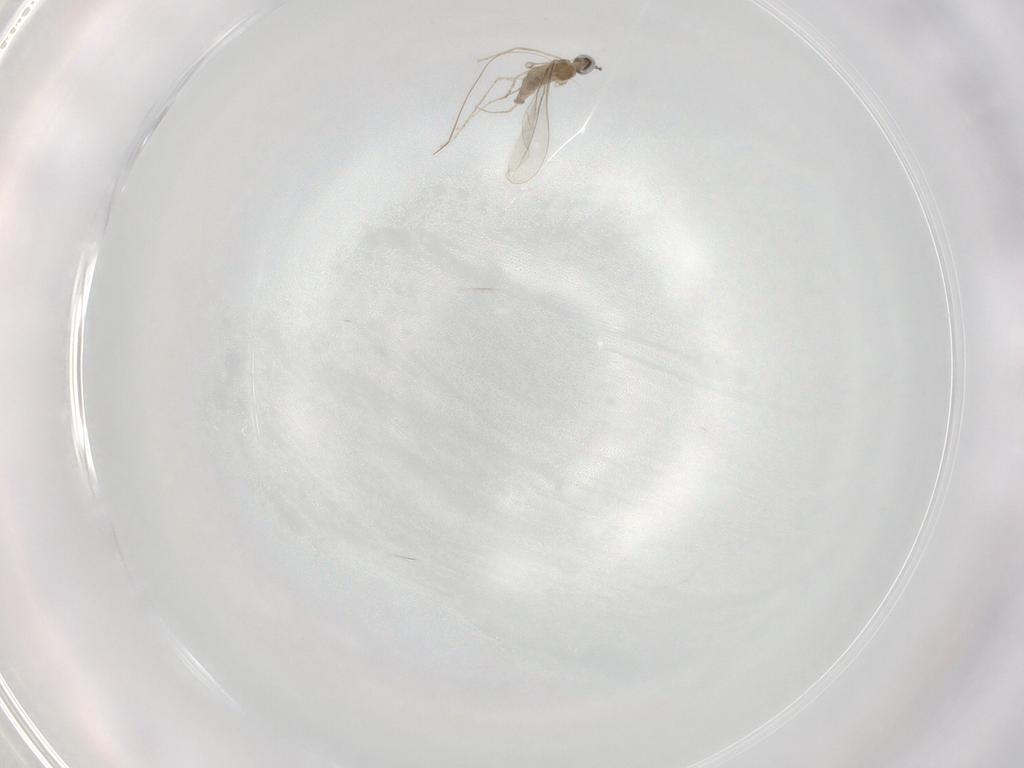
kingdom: Animalia
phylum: Arthropoda
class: Insecta
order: Diptera
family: Cecidomyiidae
